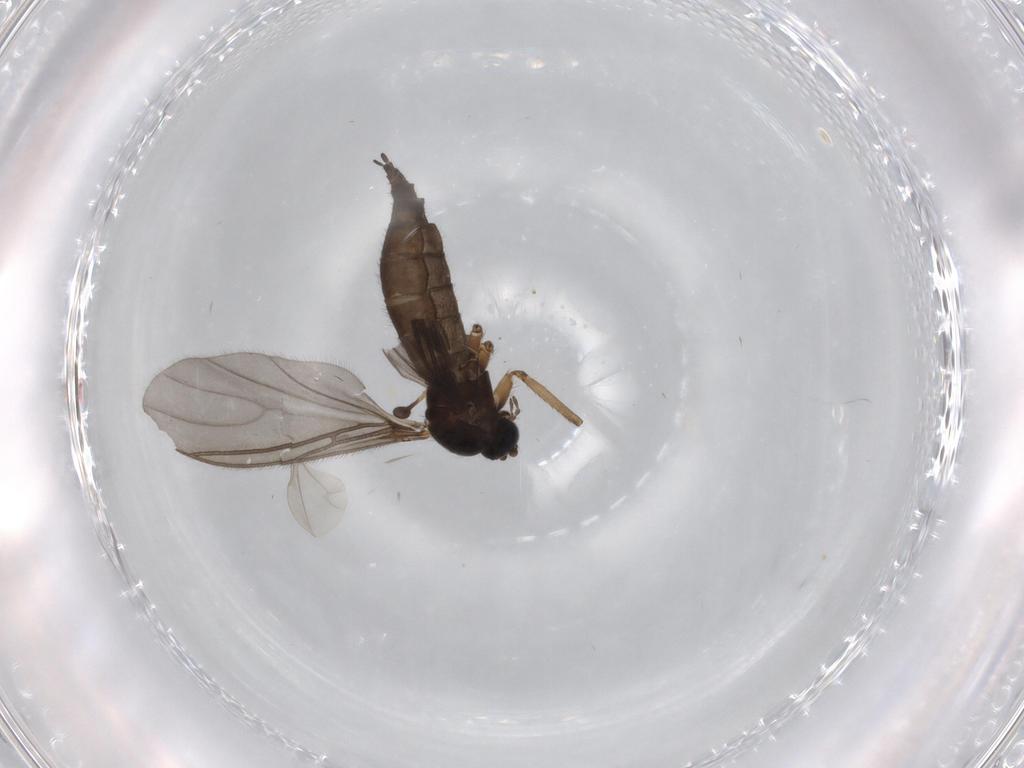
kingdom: Animalia
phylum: Arthropoda
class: Insecta
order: Diptera
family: Sciaridae
